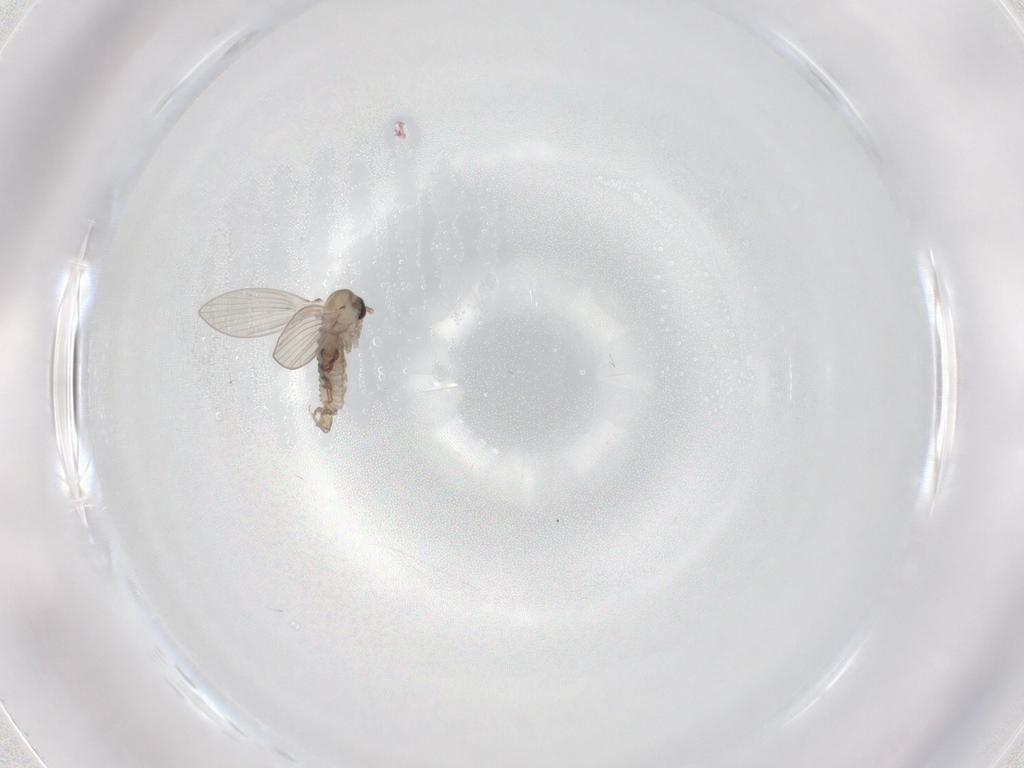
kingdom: Animalia
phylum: Arthropoda
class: Insecta
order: Diptera
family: Psychodidae
